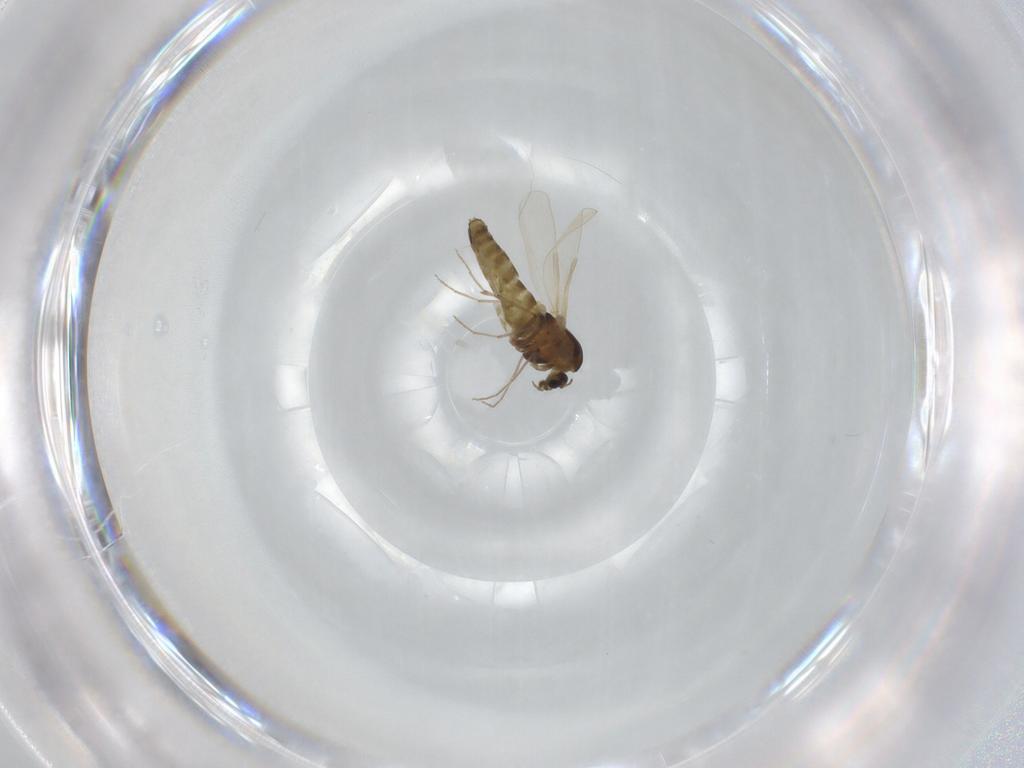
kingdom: Animalia
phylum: Arthropoda
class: Insecta
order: Diptera
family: Chironomidae
